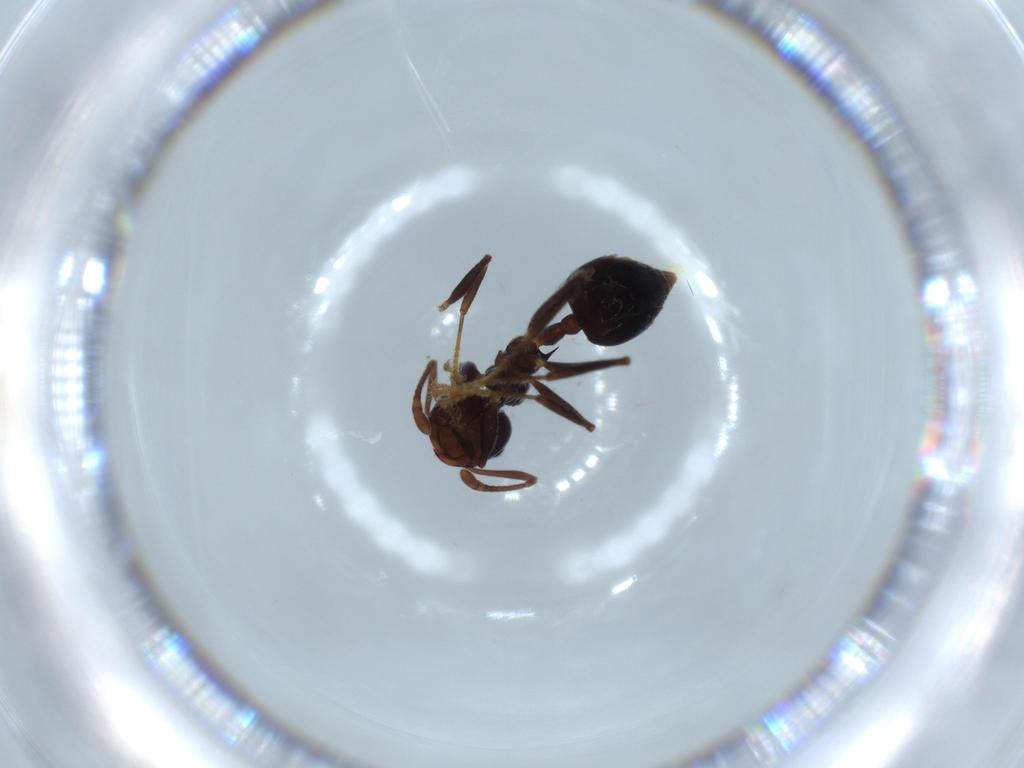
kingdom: Animalia
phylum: Arthropoda
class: Insecta
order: Hymenoptera
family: Formicidae
